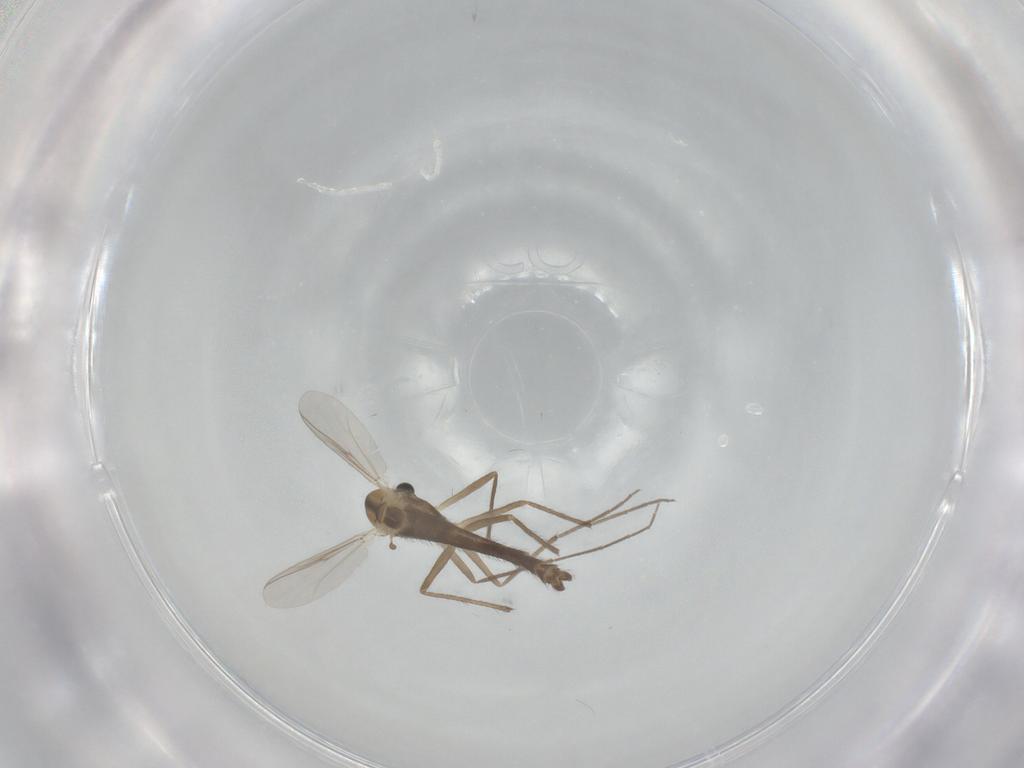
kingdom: Animalia
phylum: Arthropoda
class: Insecta
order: Diptera
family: Chironomidae
